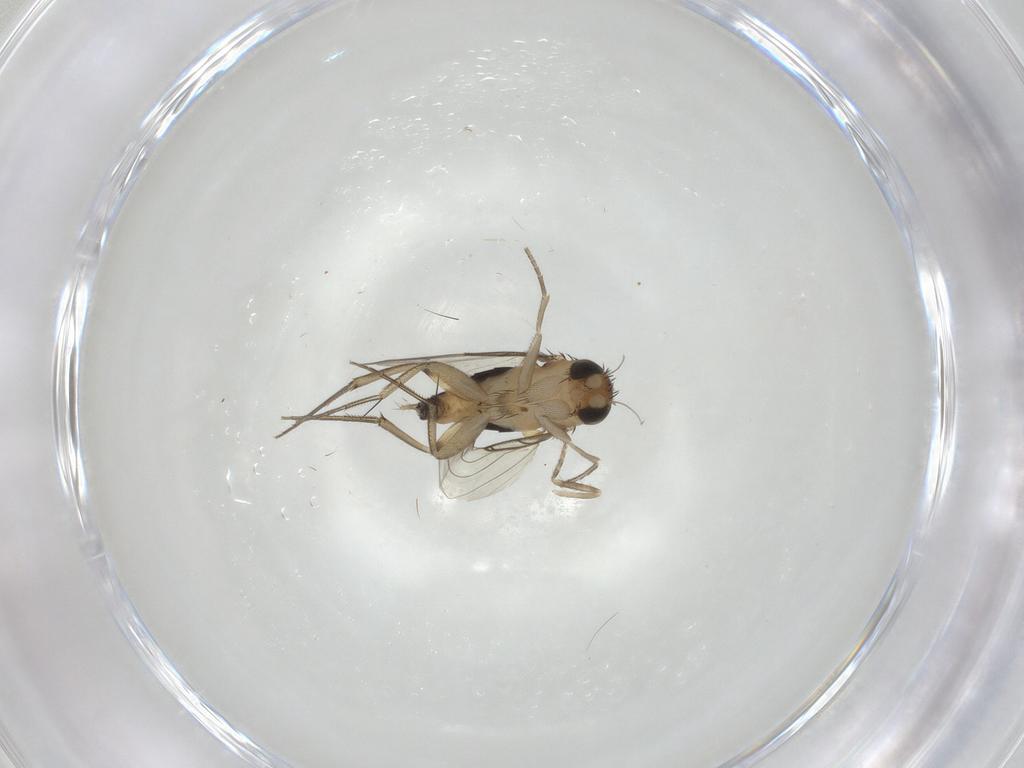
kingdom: Animalia
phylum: Arthropoda
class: Insecta
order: Diptera
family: Phoridae
